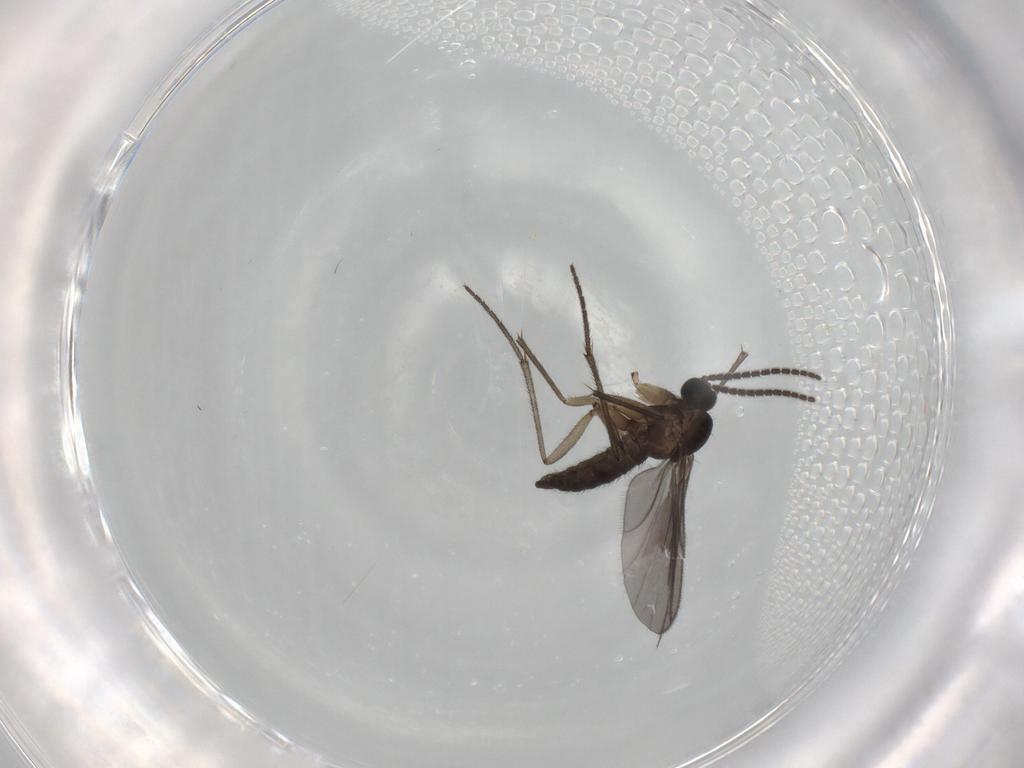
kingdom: Animalia
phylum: Arthropoda
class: Insecta
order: Diptera
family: Sciaridae
